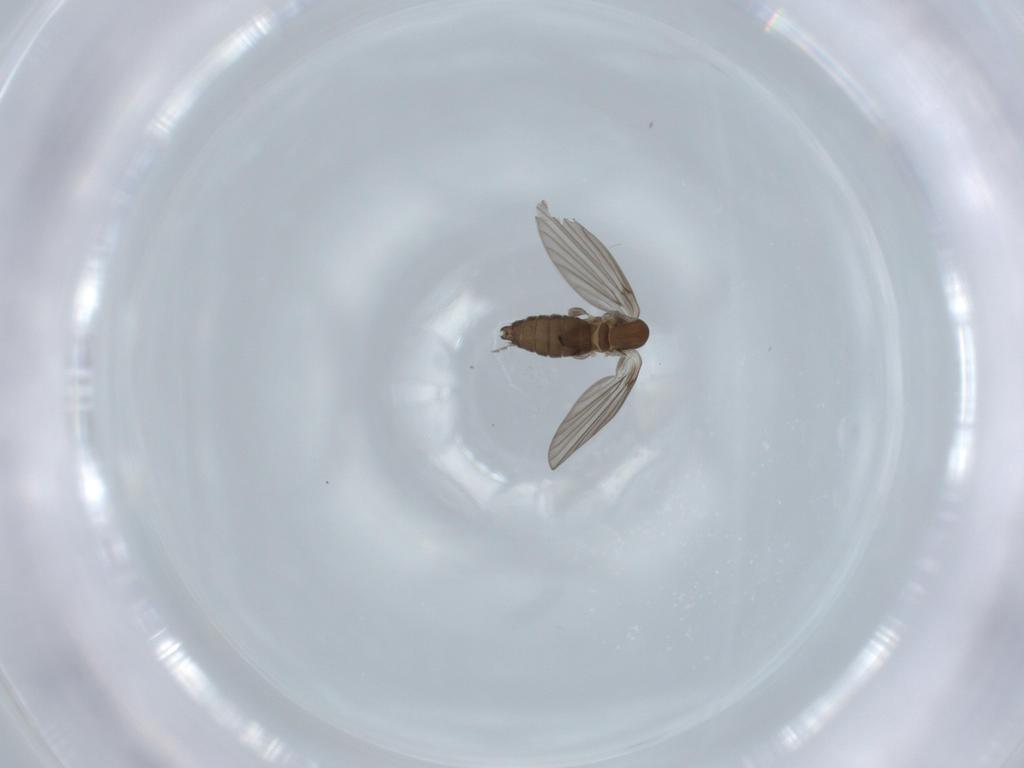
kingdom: Animalia
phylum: Arthropoda
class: Insecta
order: Diptera
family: Psychodidae
